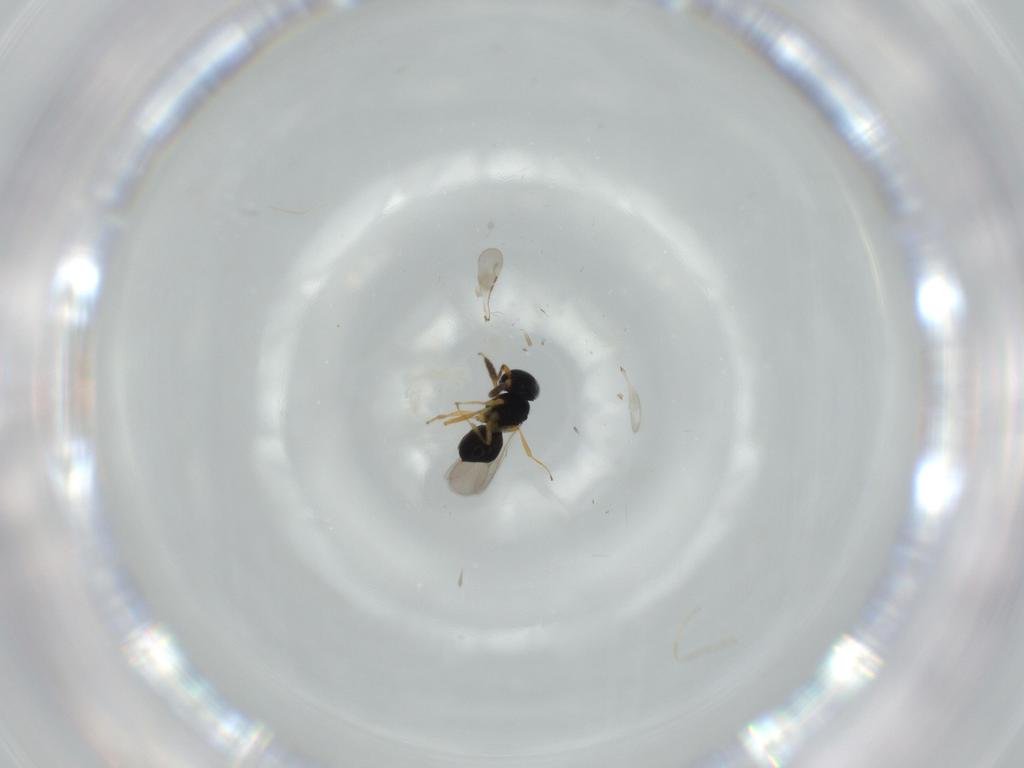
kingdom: Animalia
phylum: Arthropoda
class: Insecta
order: Hymenoptera
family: Scelionidae
